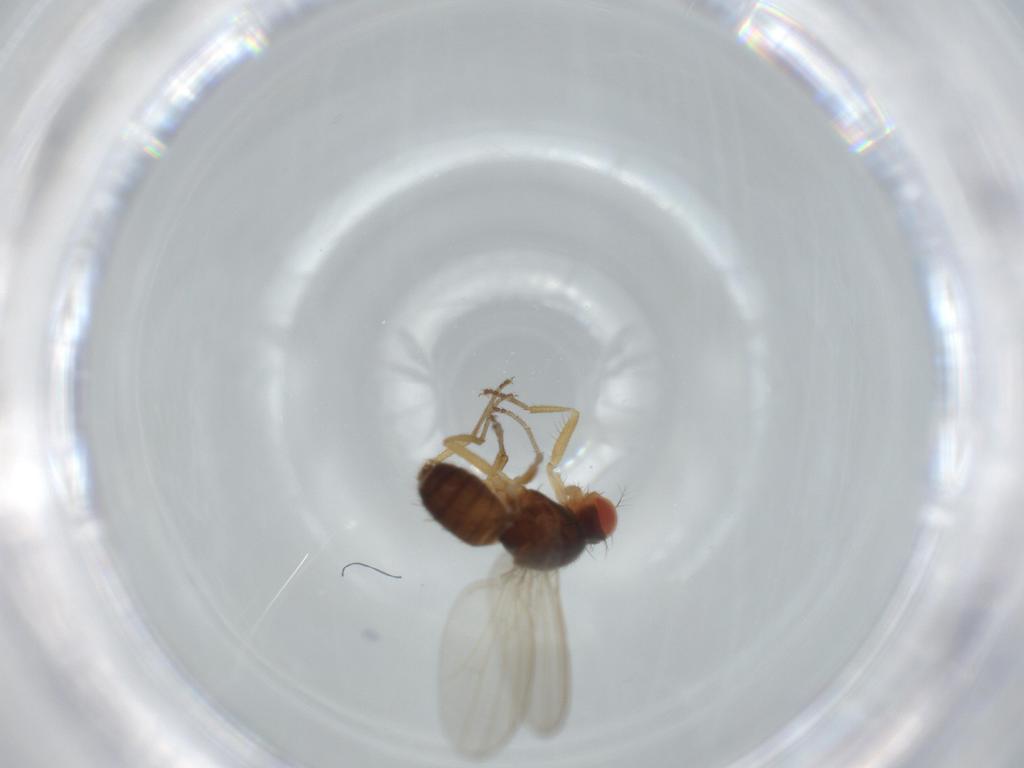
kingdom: Animalia
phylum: Arthropoda
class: Insecta
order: Diptera
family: Drosophilidae
